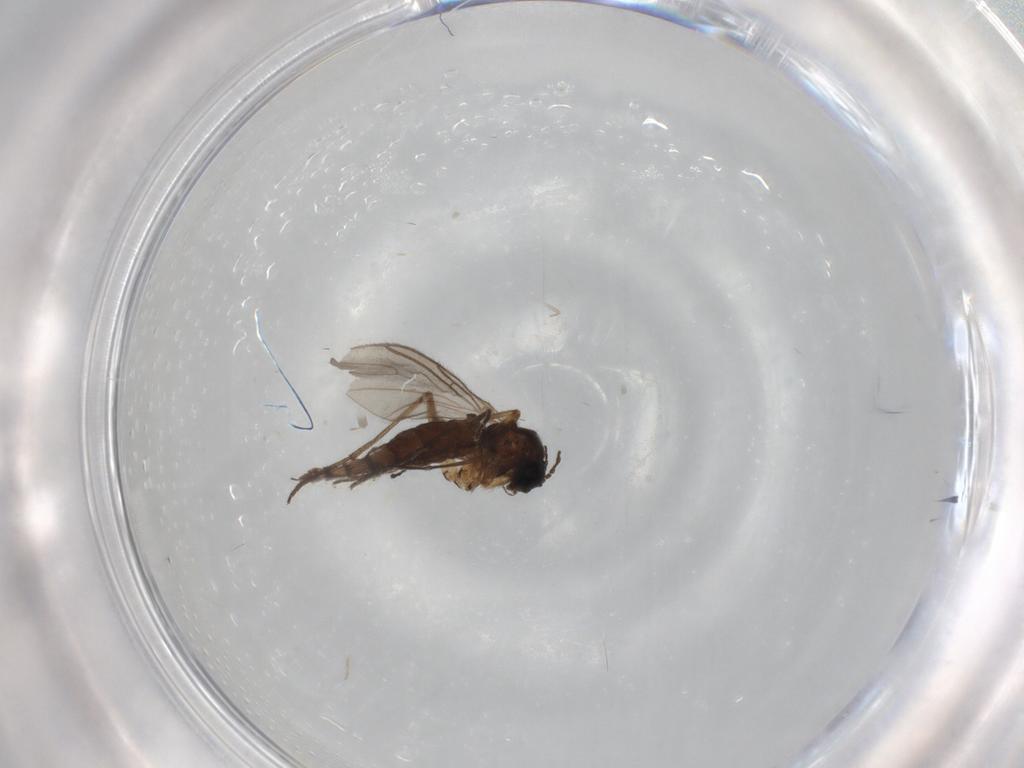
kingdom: Animalia
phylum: Arthropoda
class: Insecta
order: Diptera
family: Sciaridae
